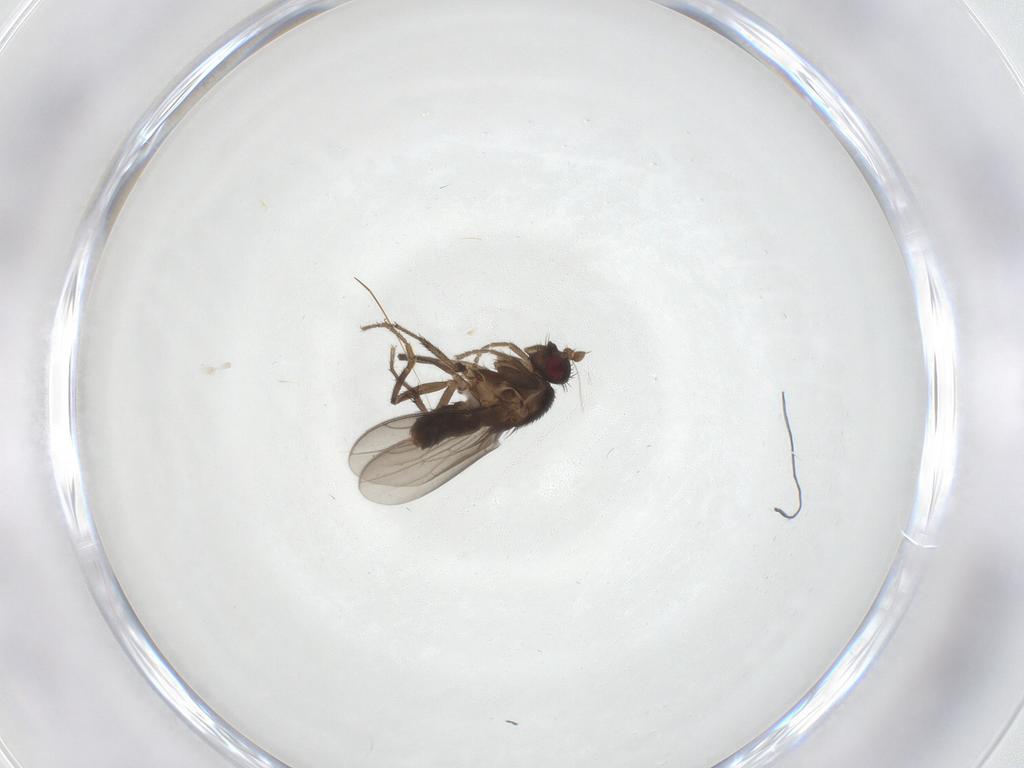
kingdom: Animalia
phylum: Arthropoda
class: Insecta
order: Diptera
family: Sphaeroceridae
